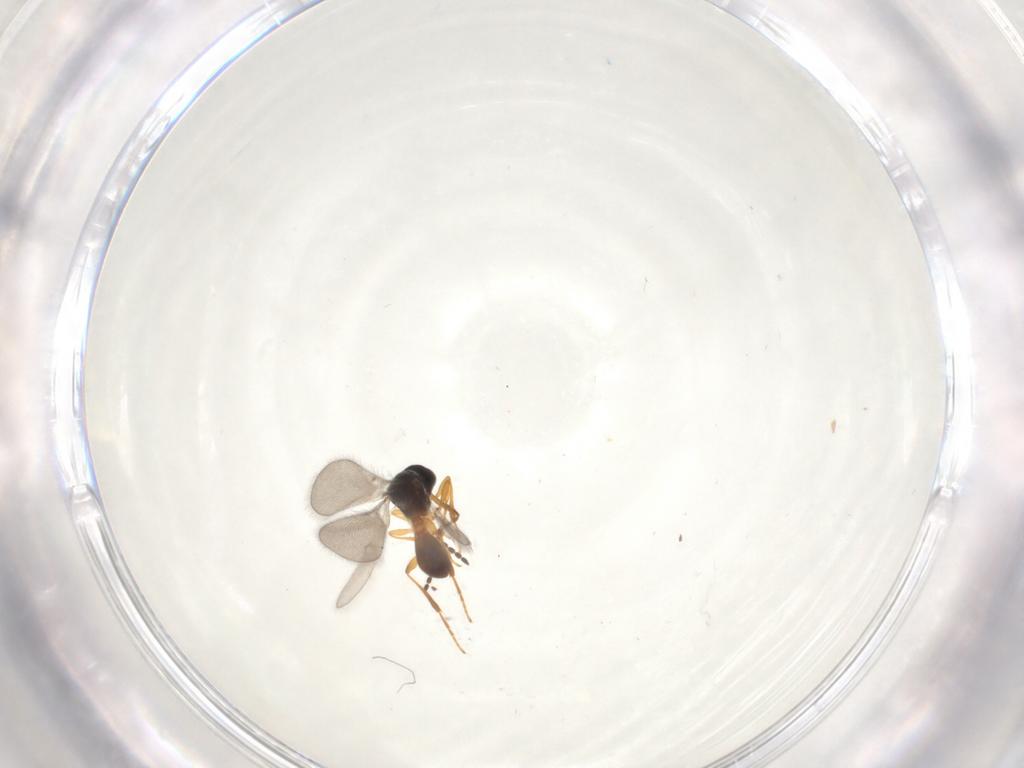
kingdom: Animalia
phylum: Arthropoda
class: Insecta
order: Hymenoptera
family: Platygastridae
